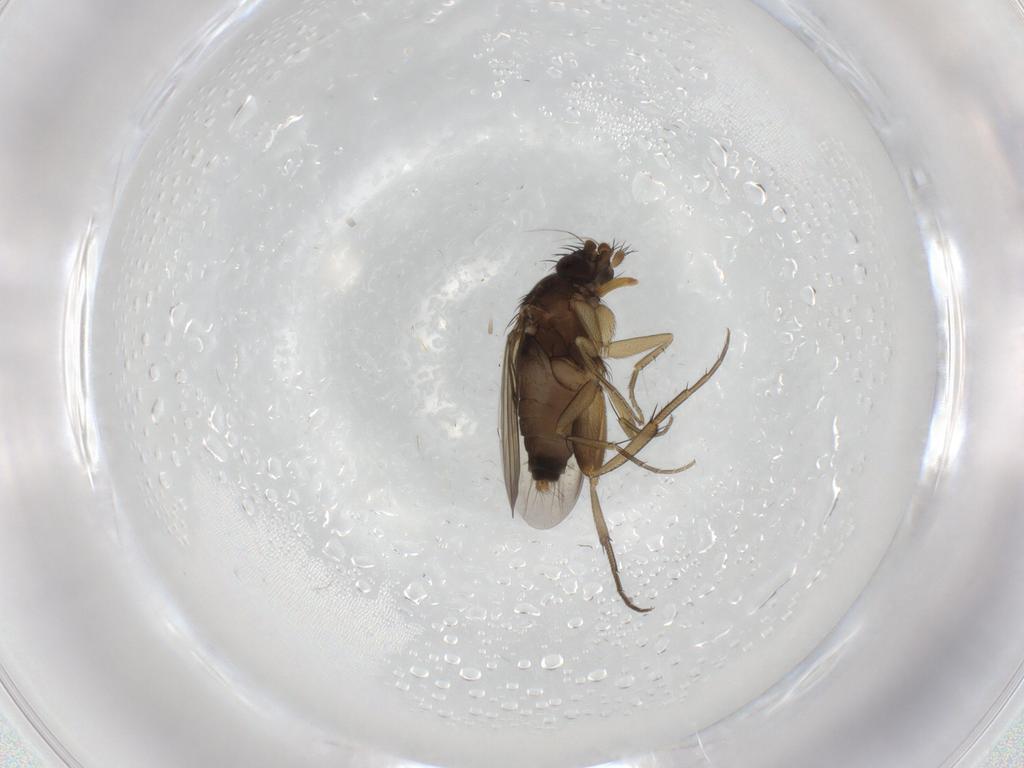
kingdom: Animalia
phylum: Arthropoda
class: Insecta
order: Diptera
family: Phoridae
